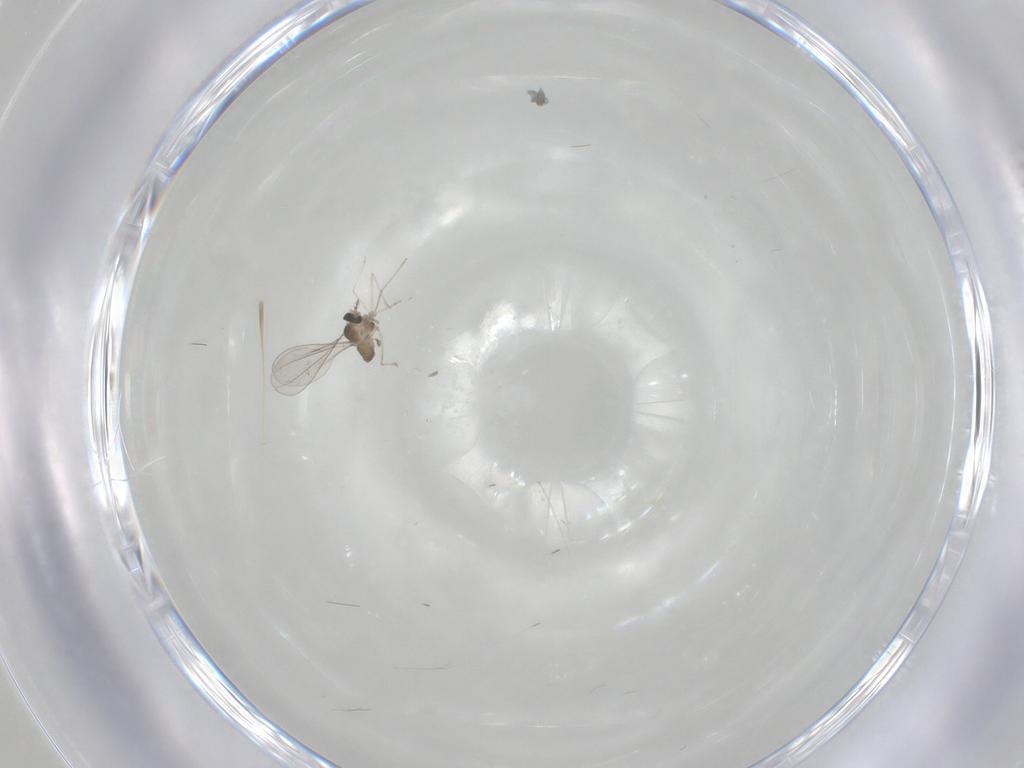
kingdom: Animalia
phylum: Arthropoda
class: Insecta
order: Diptera
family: Cecidomyiidae
